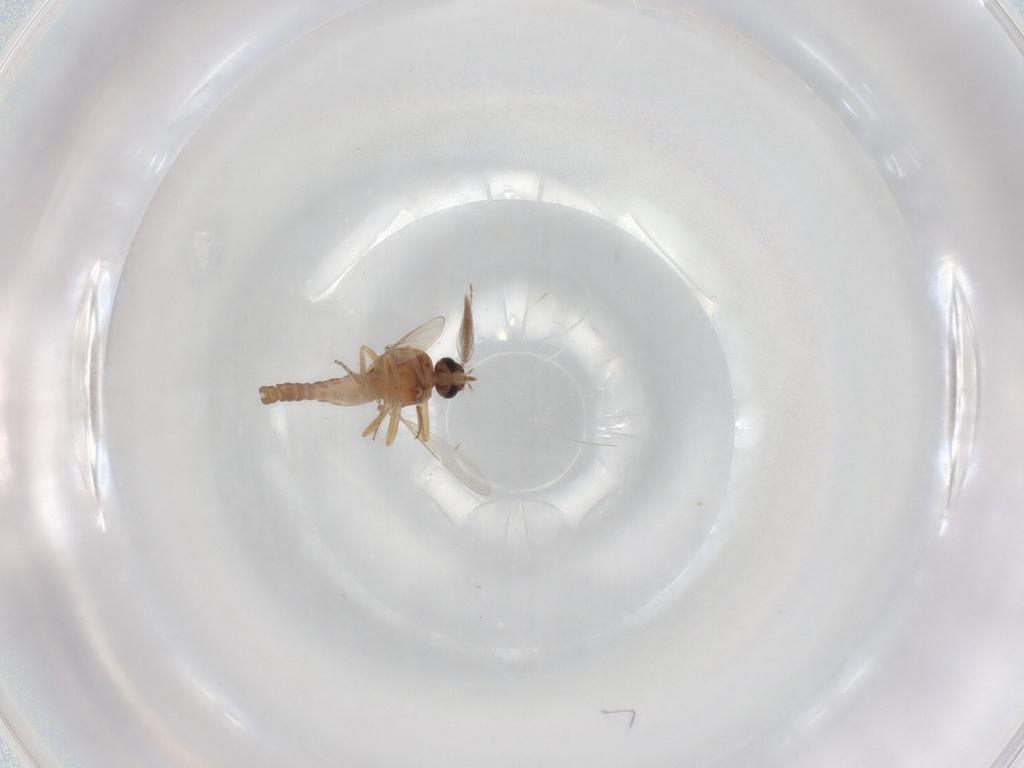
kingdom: Animalia
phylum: Arthropoda
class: Insecta
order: Diptera
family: Ceratopogonidae
